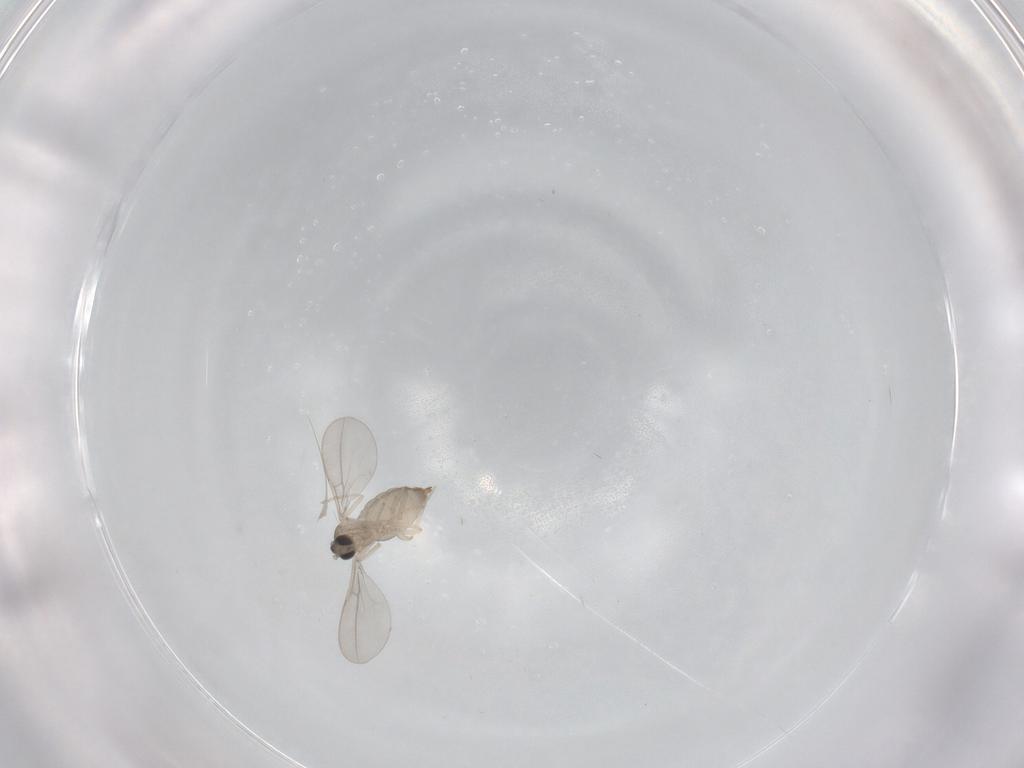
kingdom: Animalia
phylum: Arthropoda
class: Insecta
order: Diptera
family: Cecidomyiidae
